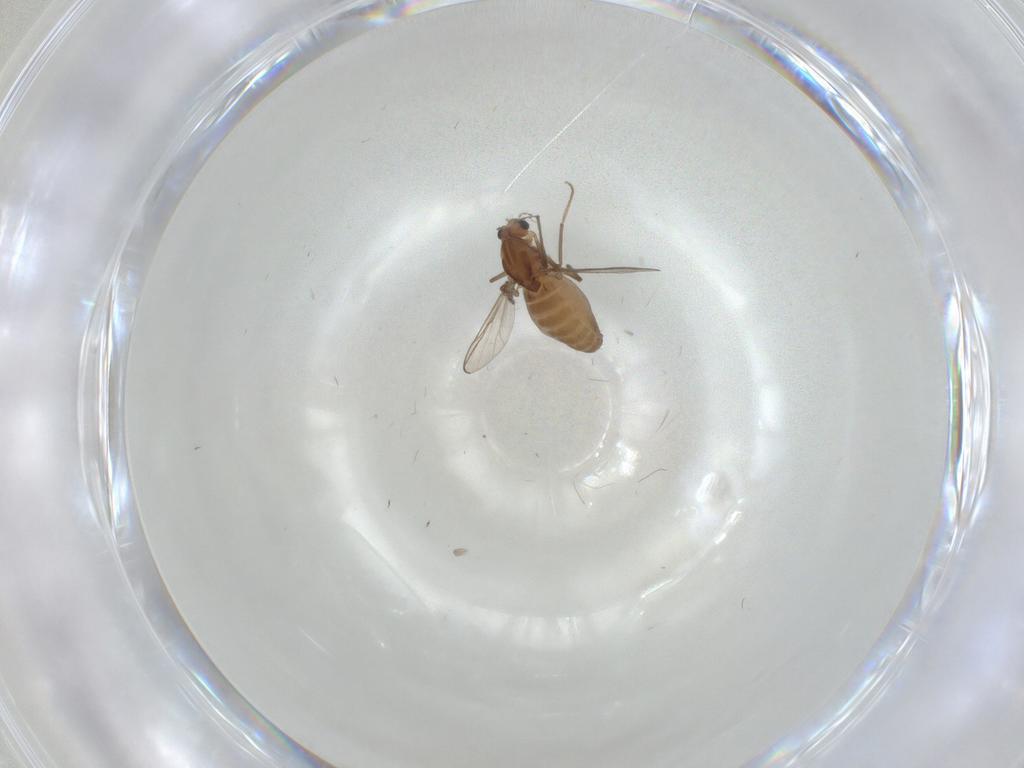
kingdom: Animalia
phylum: Arthropoda
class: Insecta
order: Diptera
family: Chironomidae
